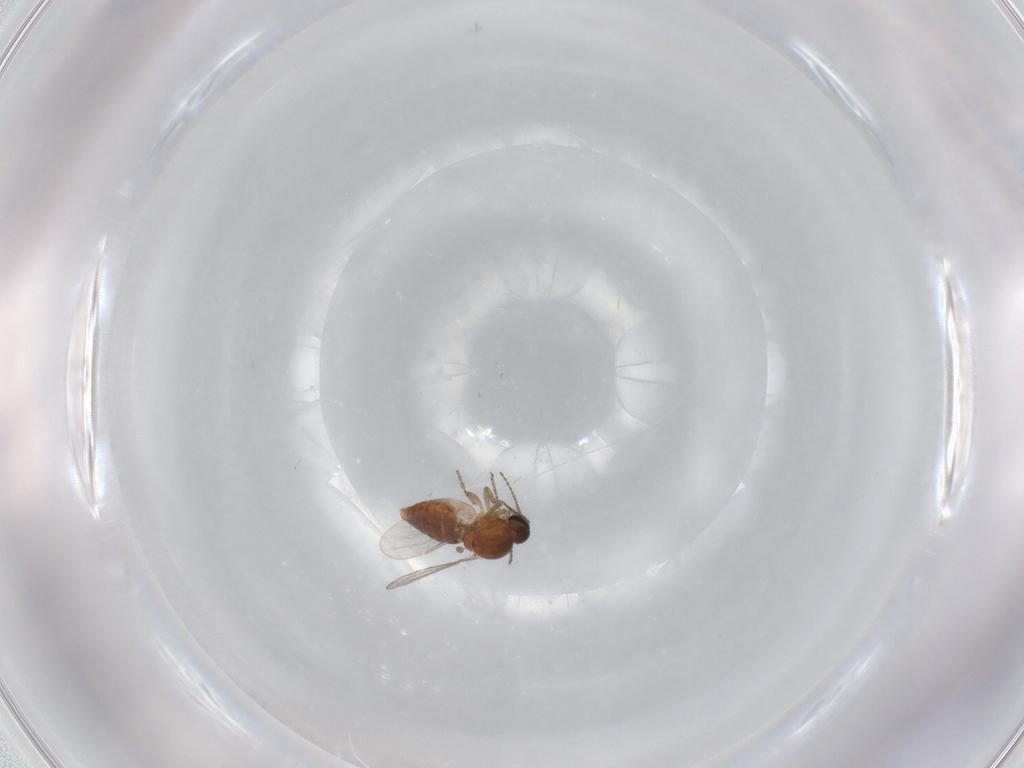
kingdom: Animalia
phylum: Arthropoda
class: Insecta
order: Diptera
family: Ceratopogonidae
